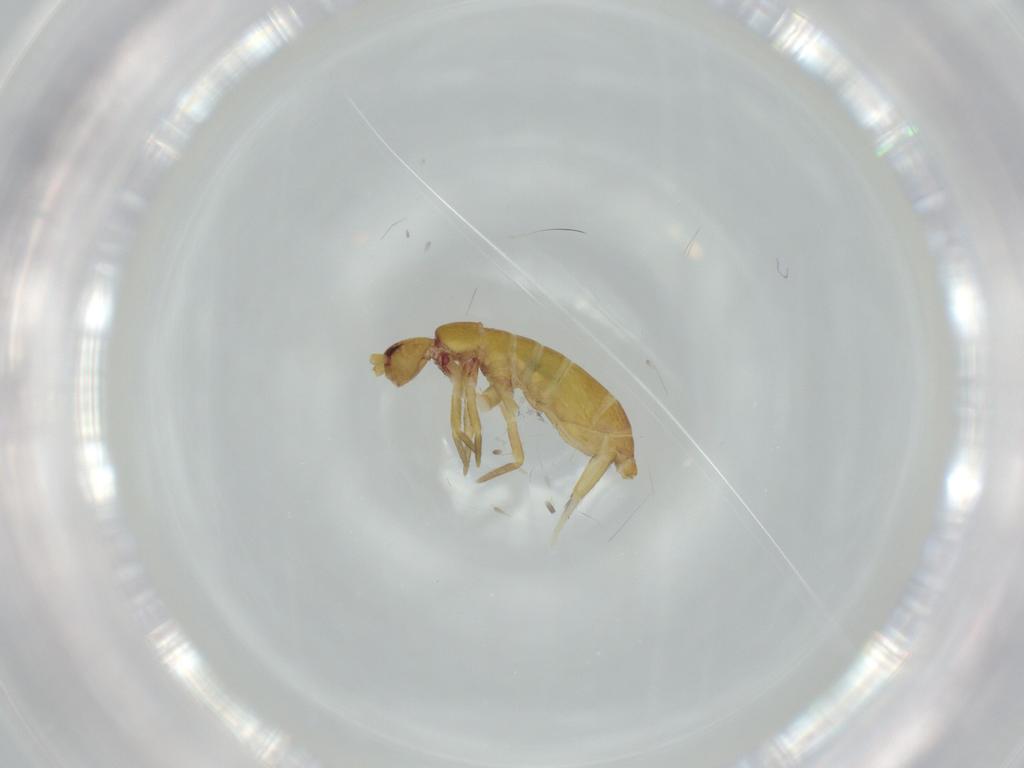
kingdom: Animalia
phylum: Arthropoda
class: Collembola
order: Entomobryomorpha
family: Tomoceridae
